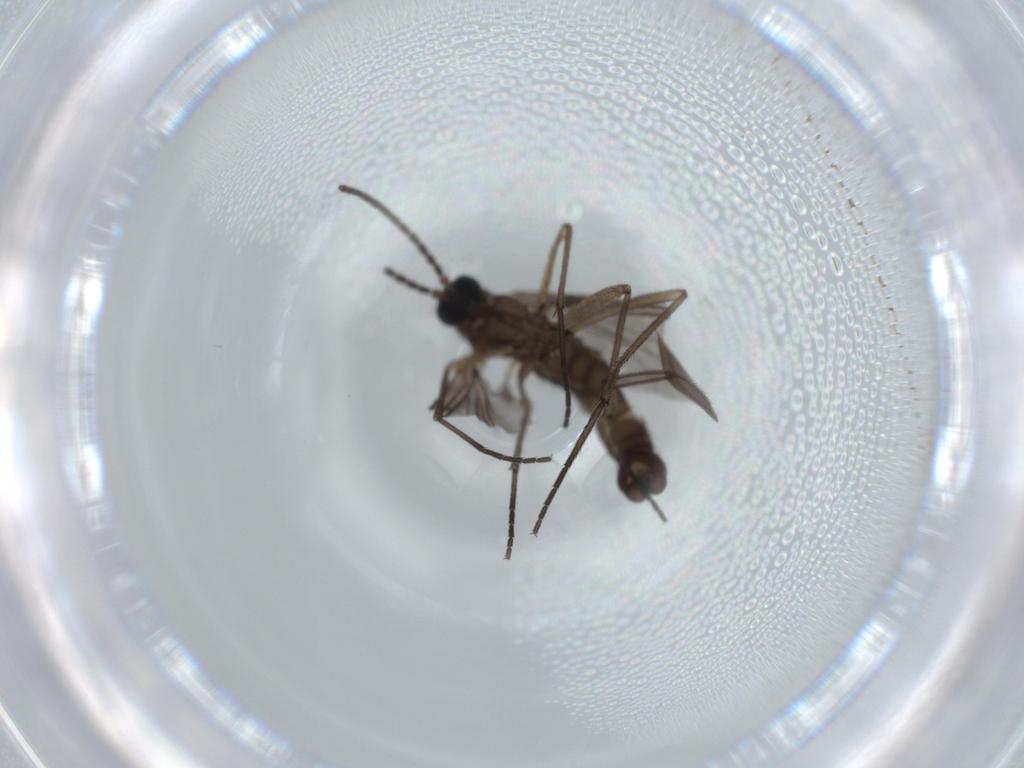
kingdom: Animalia
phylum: Arthropoda
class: Insecta
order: Diptera
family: Sciaridae
